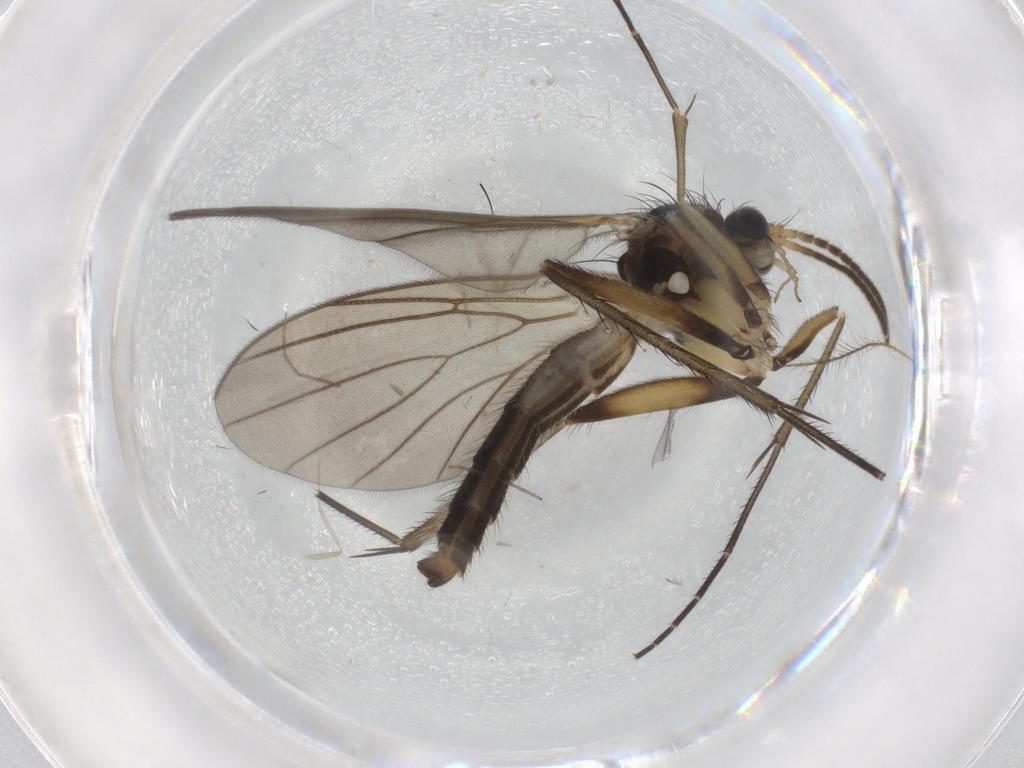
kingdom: Animalia
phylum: Arthropoda
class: Insecta
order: Diptera
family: Cecidomyiidae
